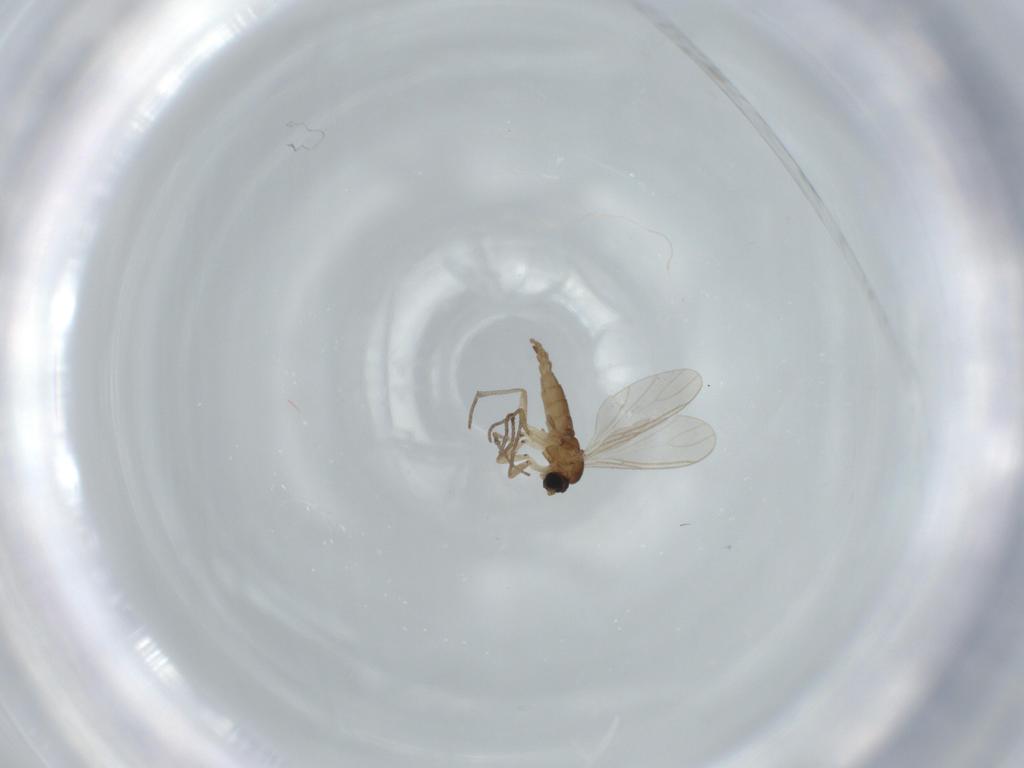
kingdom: Animalia
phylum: Arthropoda
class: Insecta
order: Diptera
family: Sciaridae
